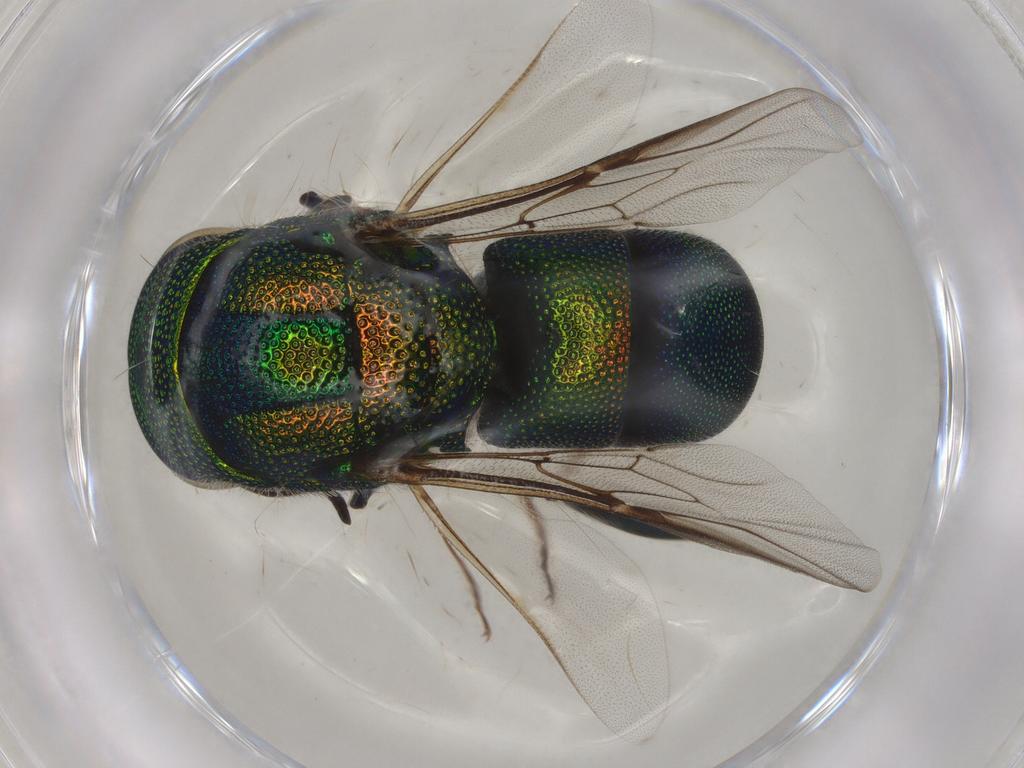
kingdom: Animalia
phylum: Arthropoda
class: Insecta
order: Hymenoptera
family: Chrysididae
